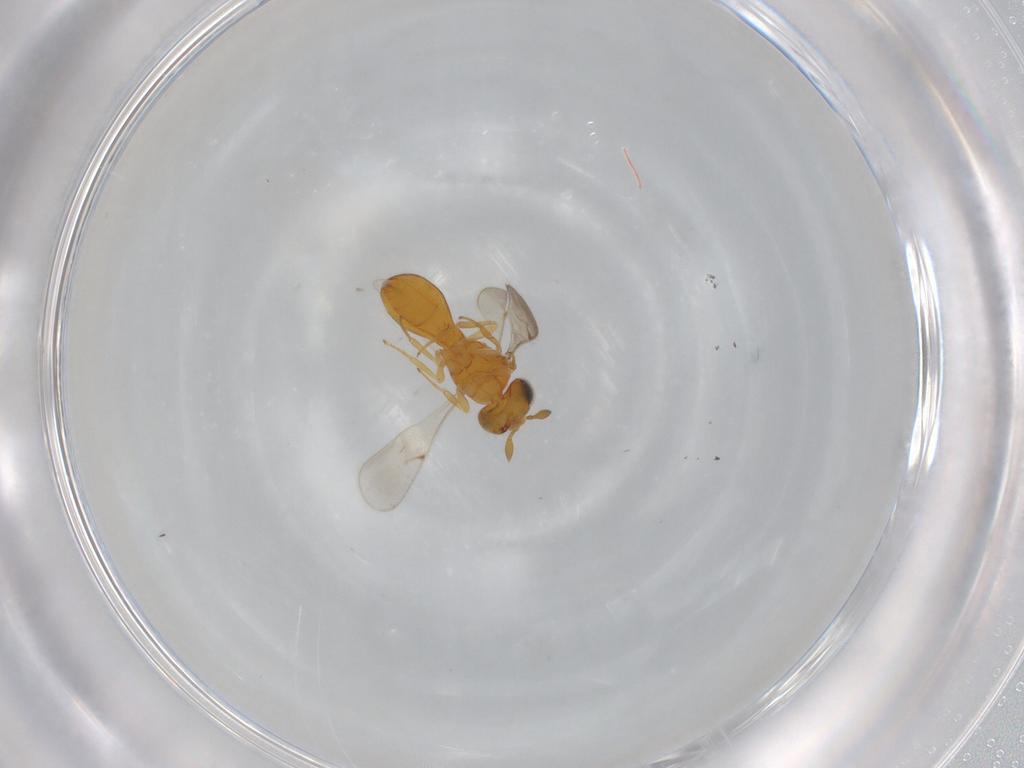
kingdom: Animalia
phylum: Arthropoda
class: Insecta
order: Hymenoptera
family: Scelionidae
